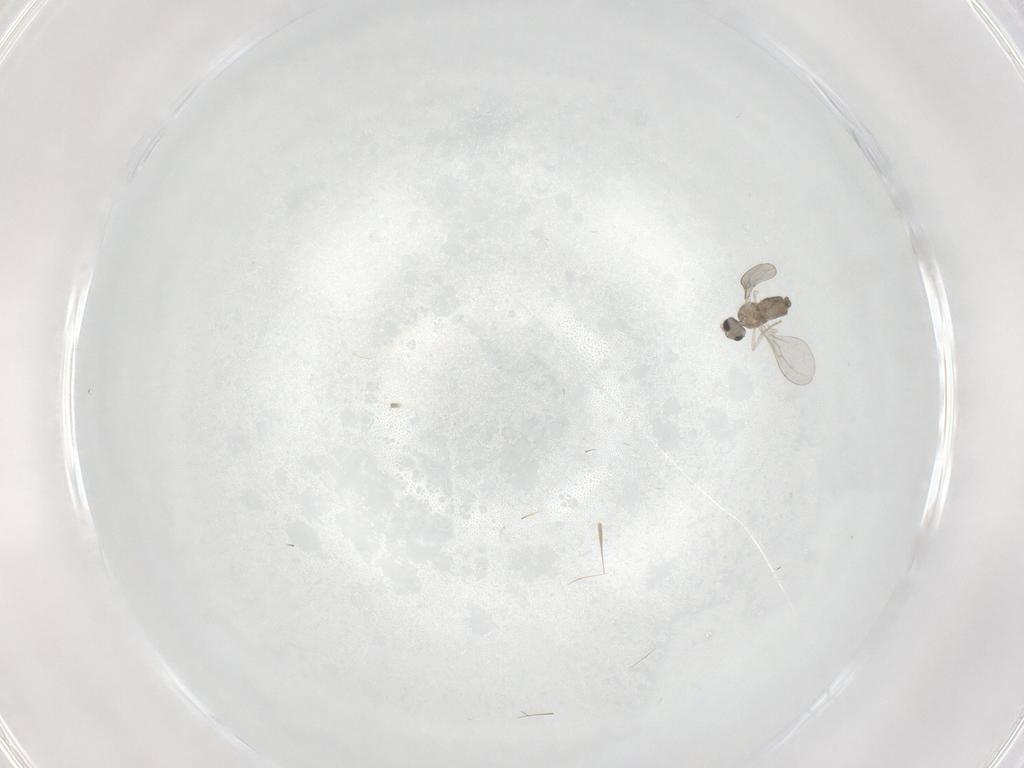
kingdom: Animalia
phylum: Arthropoda
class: Insecta
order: Diptera
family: Cecidomyiidae
